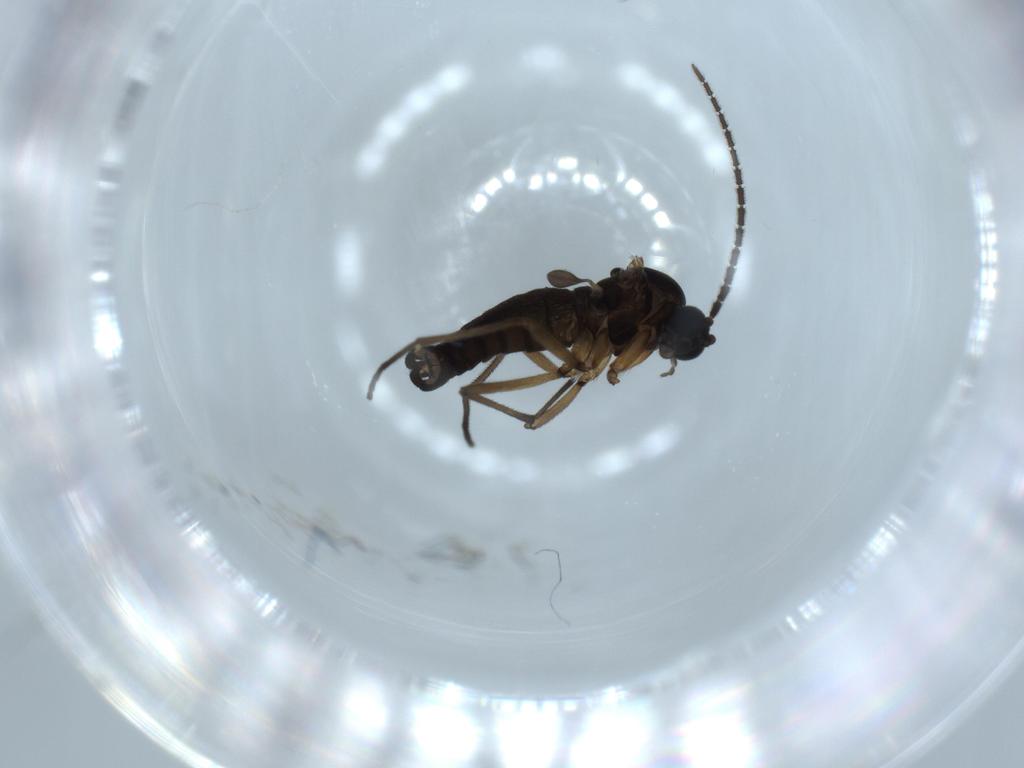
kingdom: Animalia
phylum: Arthropoda
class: Insecta
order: Diptera
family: Sciaridae
